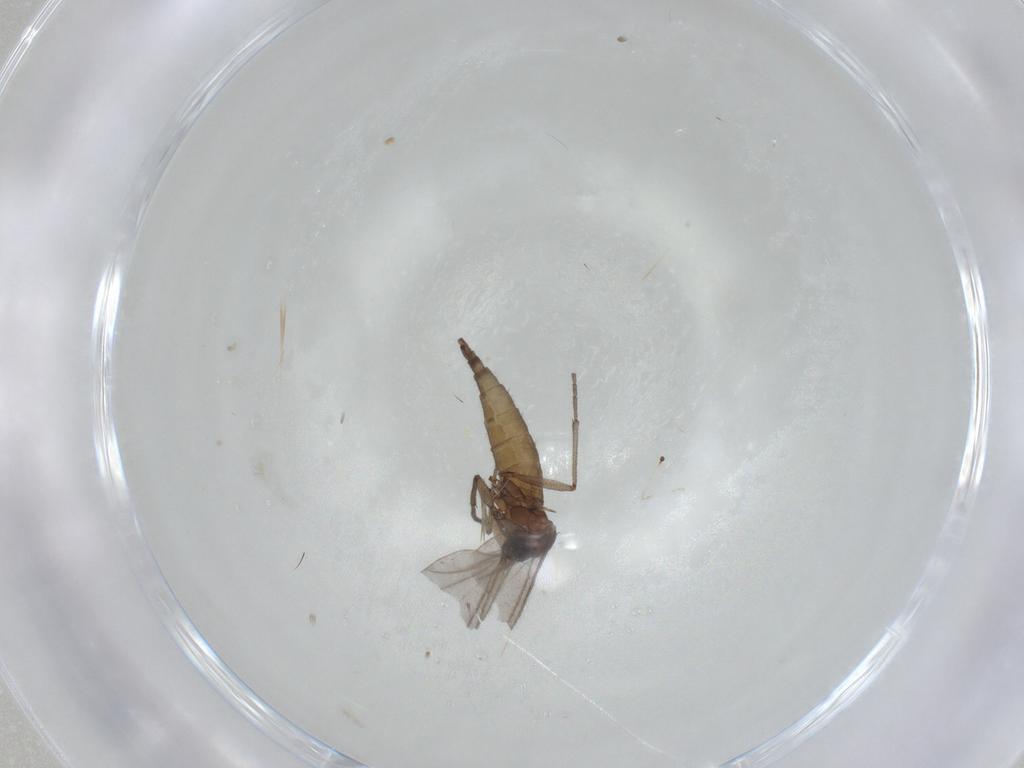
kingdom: Animalia
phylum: Arthropoda
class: Insecta
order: Diptera
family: Sciaridae
